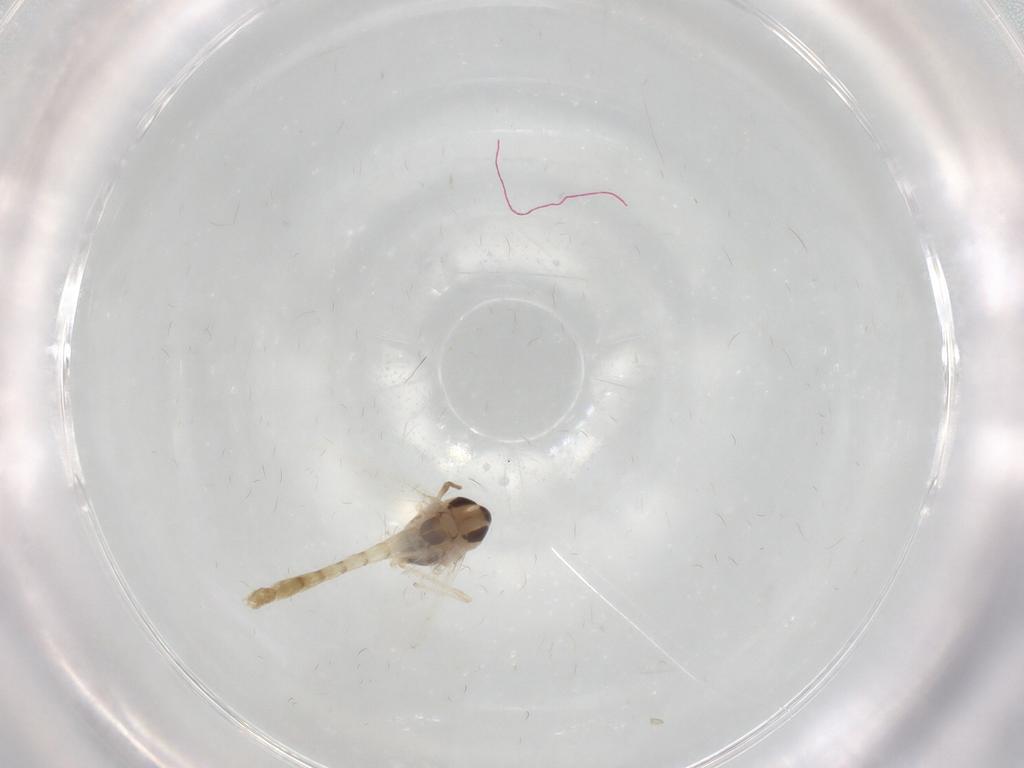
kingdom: Animalia
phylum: Arthropoda
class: Insecta
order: Diptera
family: Chironomidae
